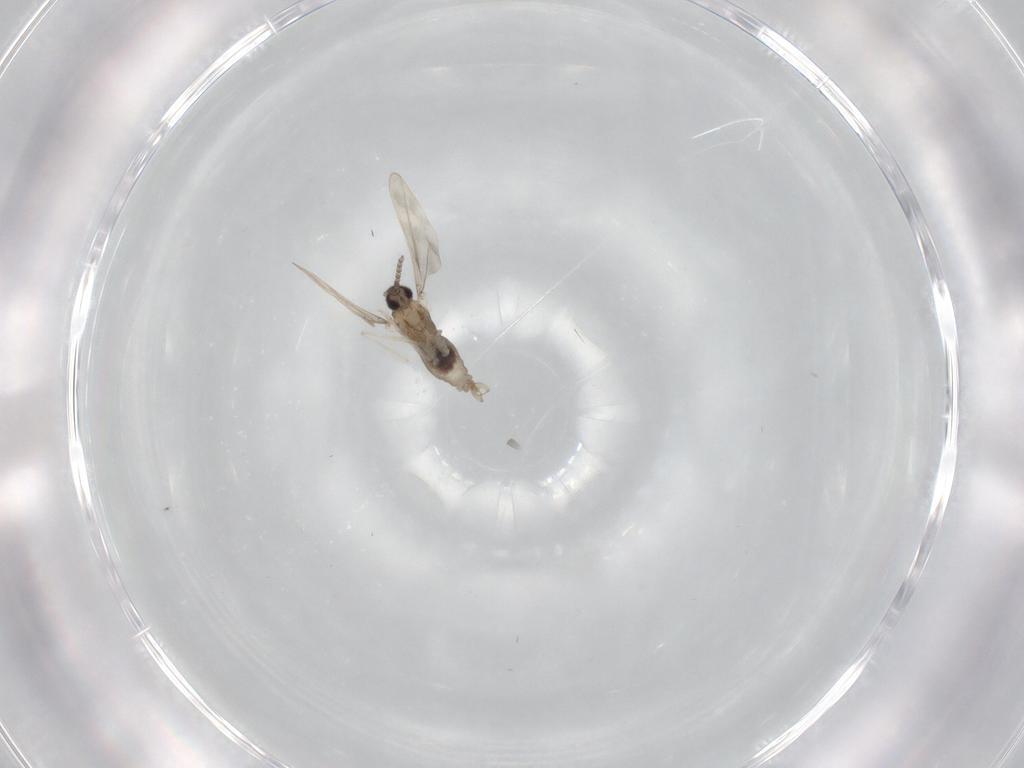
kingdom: Animalia
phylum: Arthropoda
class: Insecta
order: Diptera
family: Cecidomyiidae
